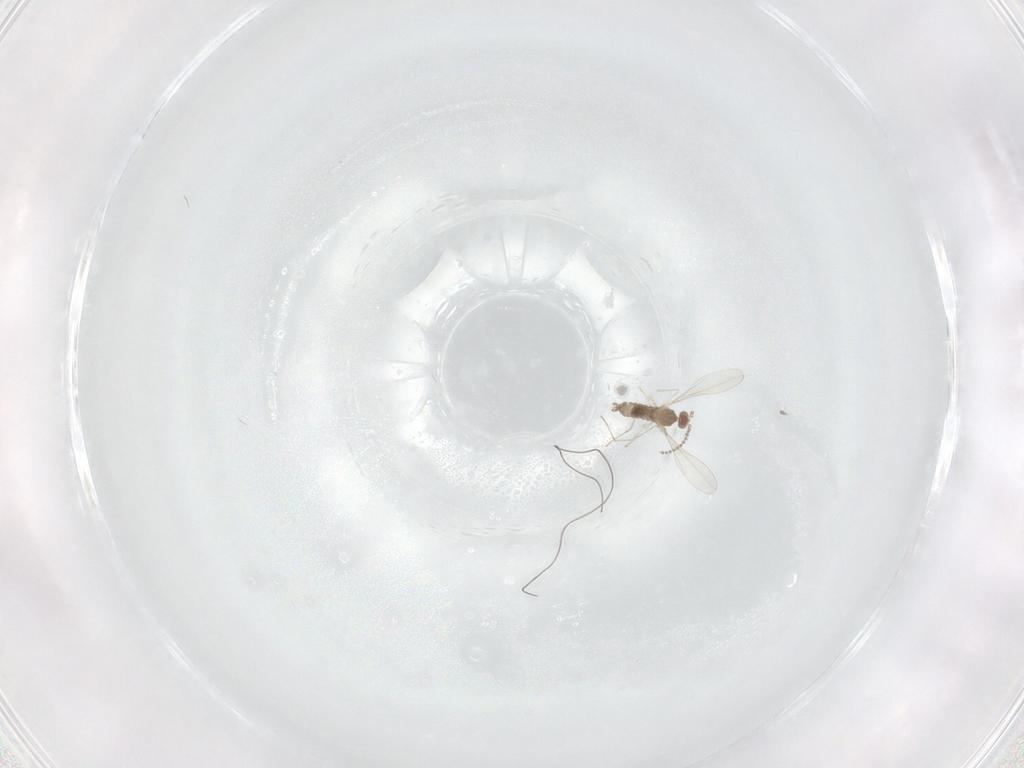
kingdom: Animalia
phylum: Arthropoda
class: Insecta
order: Diptera
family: Cecidomyiidae
